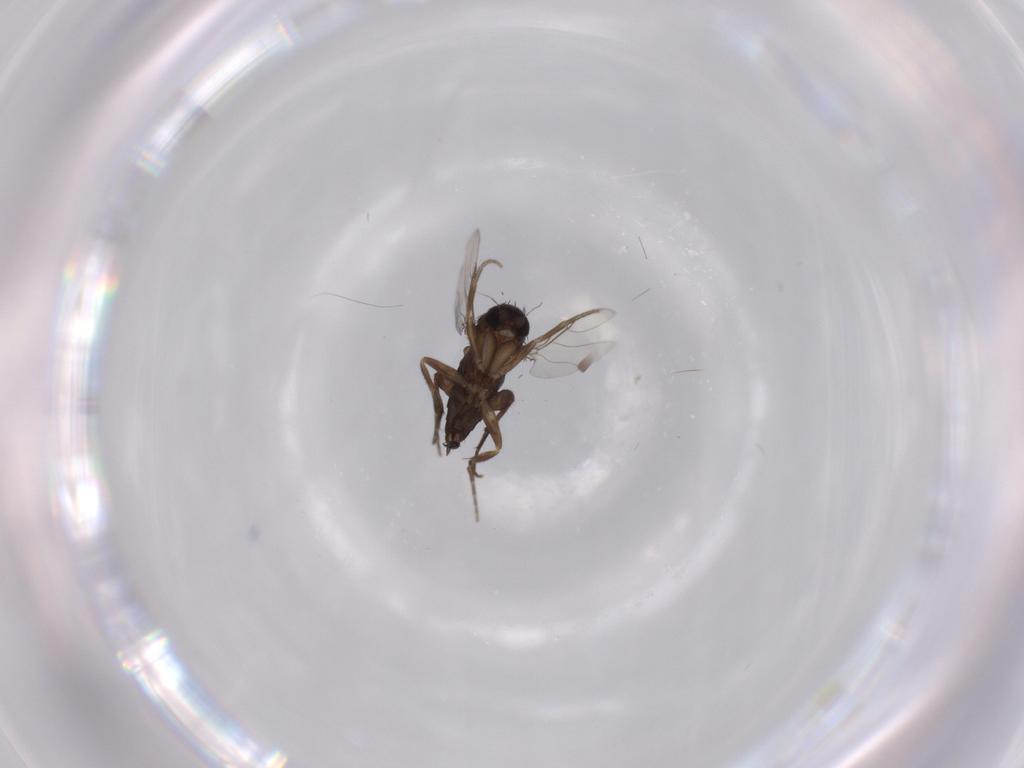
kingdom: Animalia
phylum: Arthropoda
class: Insecta
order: Diptera
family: Phoridae
